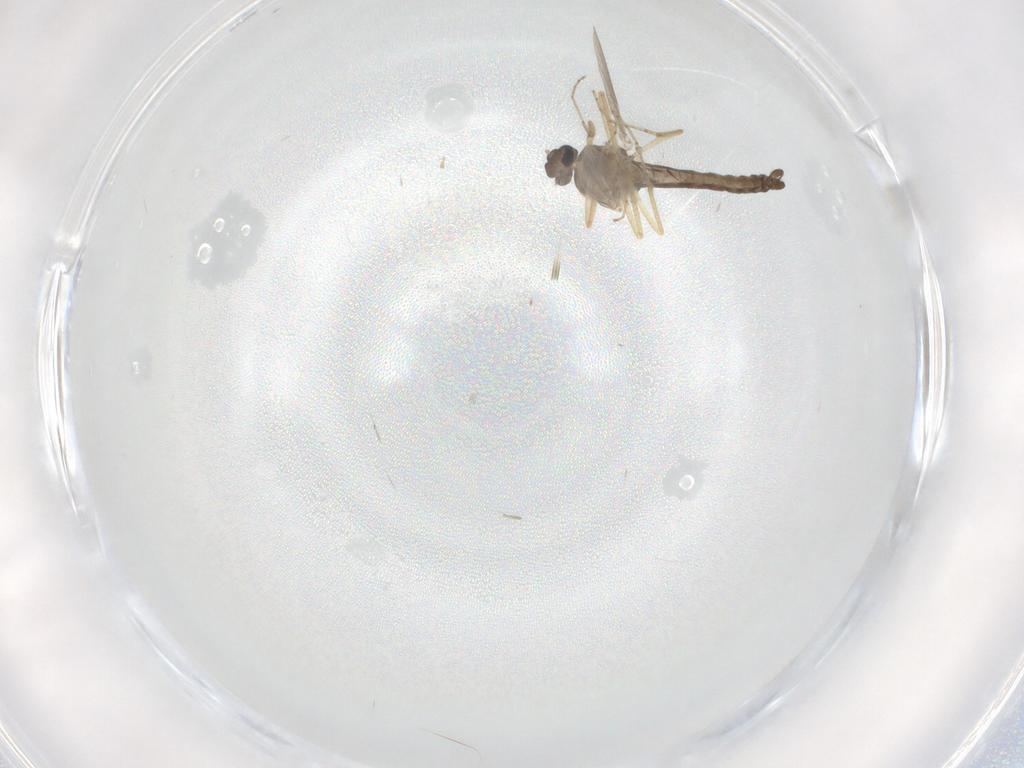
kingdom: Animalia
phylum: Arthropoda
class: Insecta
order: Diptera
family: Ceratopogonidae
